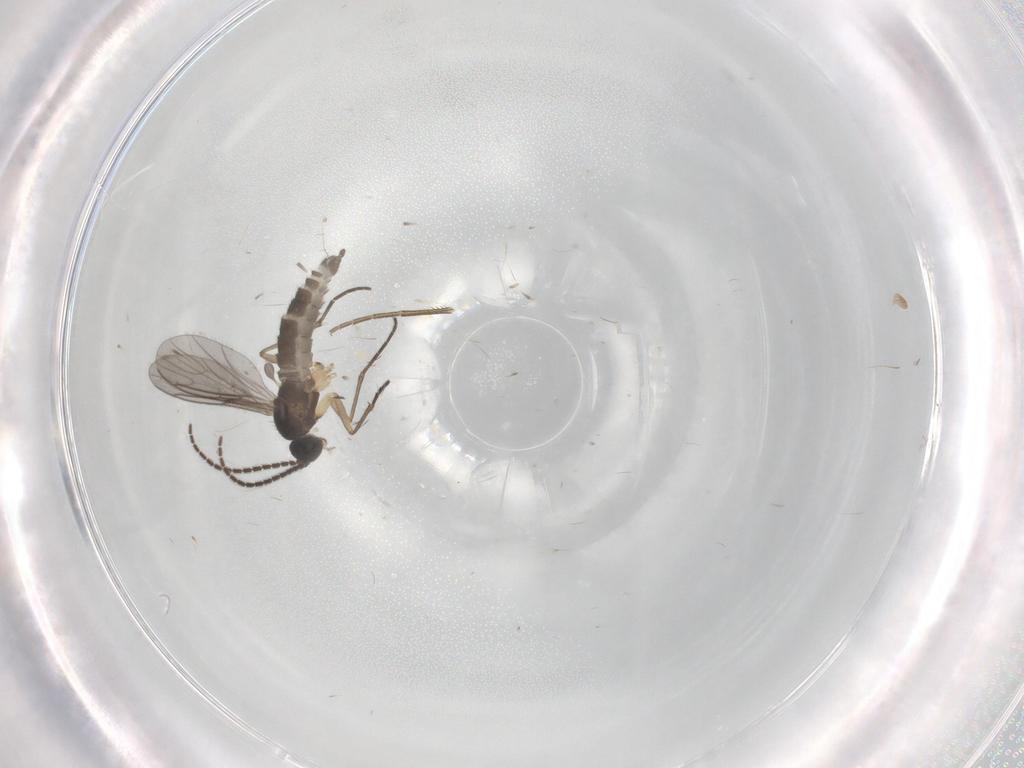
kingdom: Animalia
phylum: Arthropoda
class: Insecta
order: Diptera
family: Sciaridae
